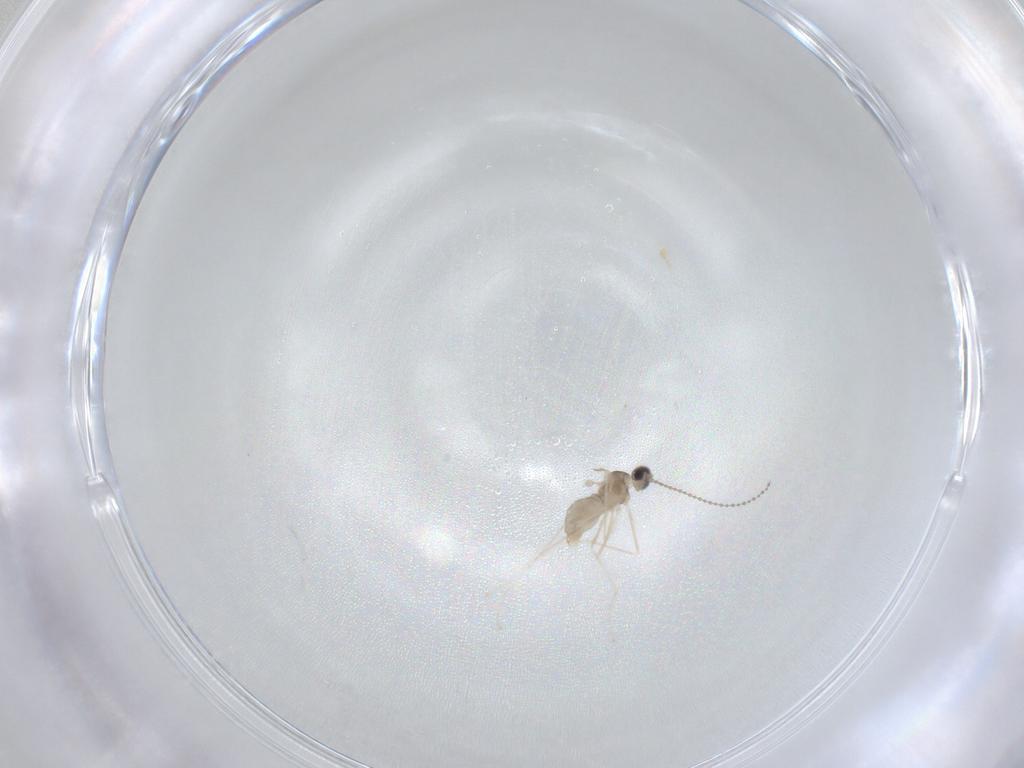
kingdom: Animalia
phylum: Arthropoda
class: Insecta
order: Diptera
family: Cecidomyiidae
